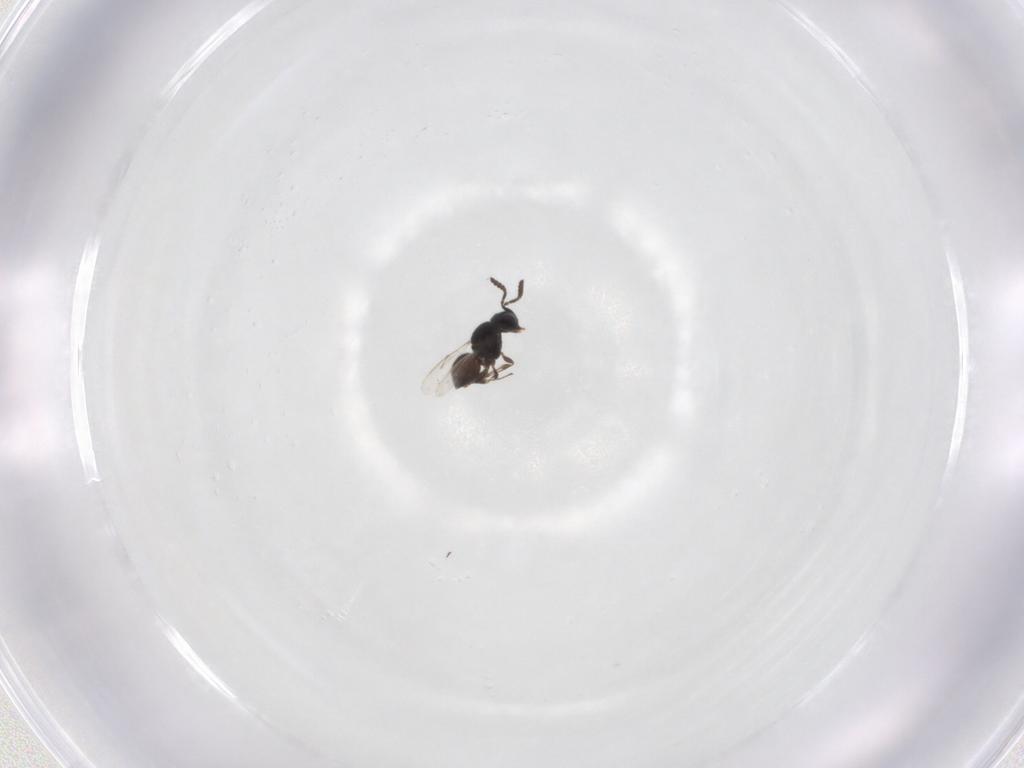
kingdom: Animalia
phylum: Arthropoda
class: Insecta
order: Hymenoptera
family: Scelionidae
